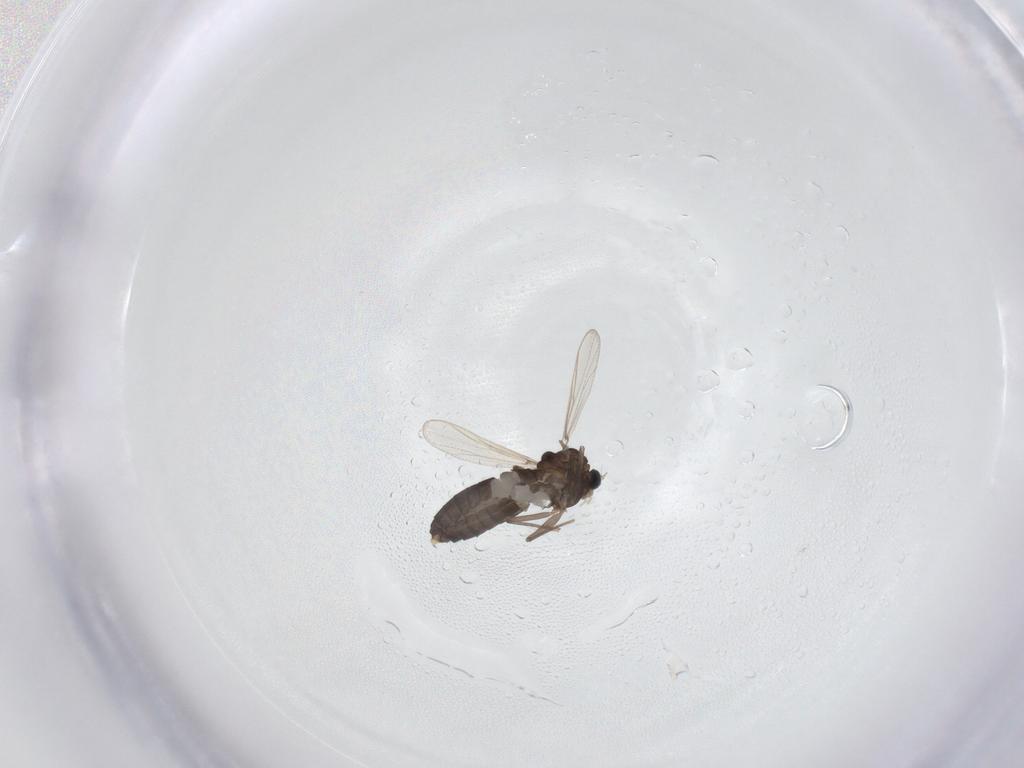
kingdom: Animalia
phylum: Arthropoda
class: Insecta
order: Diptera
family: Chironomidae
